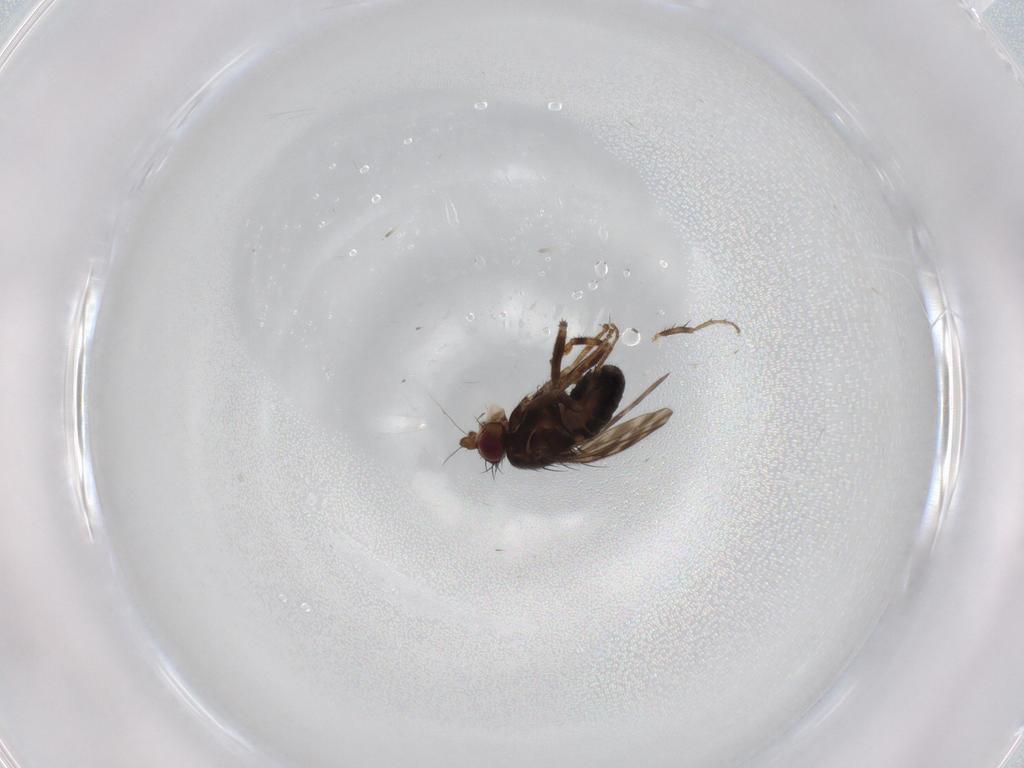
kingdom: Animalia
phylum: Arthropoda
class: Insecta
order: Diptera
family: Sphaeroceridae
